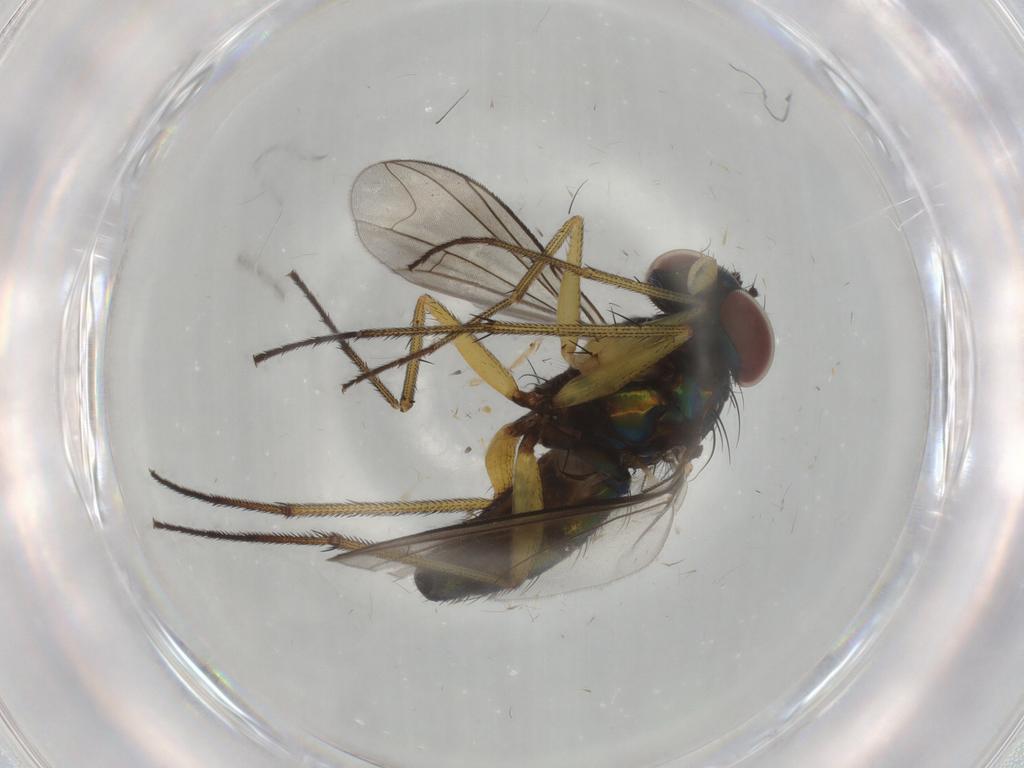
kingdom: Animalia
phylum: Arthropoda
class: Insecta
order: Diptera
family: Dolichopodidae
